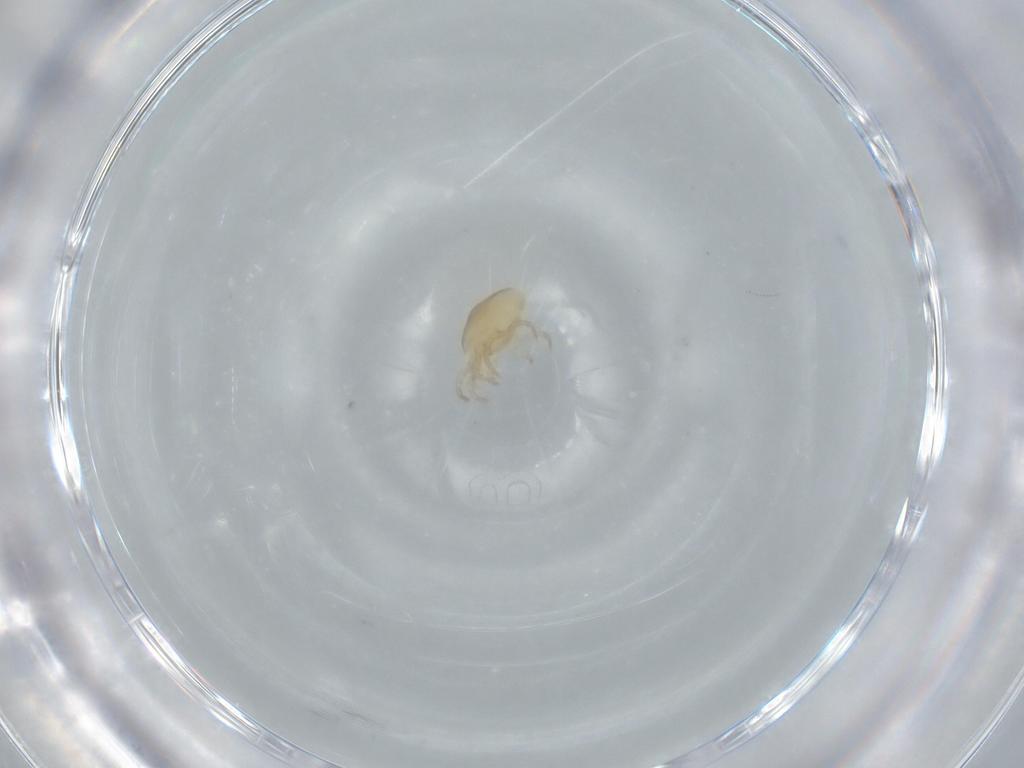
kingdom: Animalia
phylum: Arthropoda
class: Arachnida
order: Mesostigmata
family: Laelapidae
